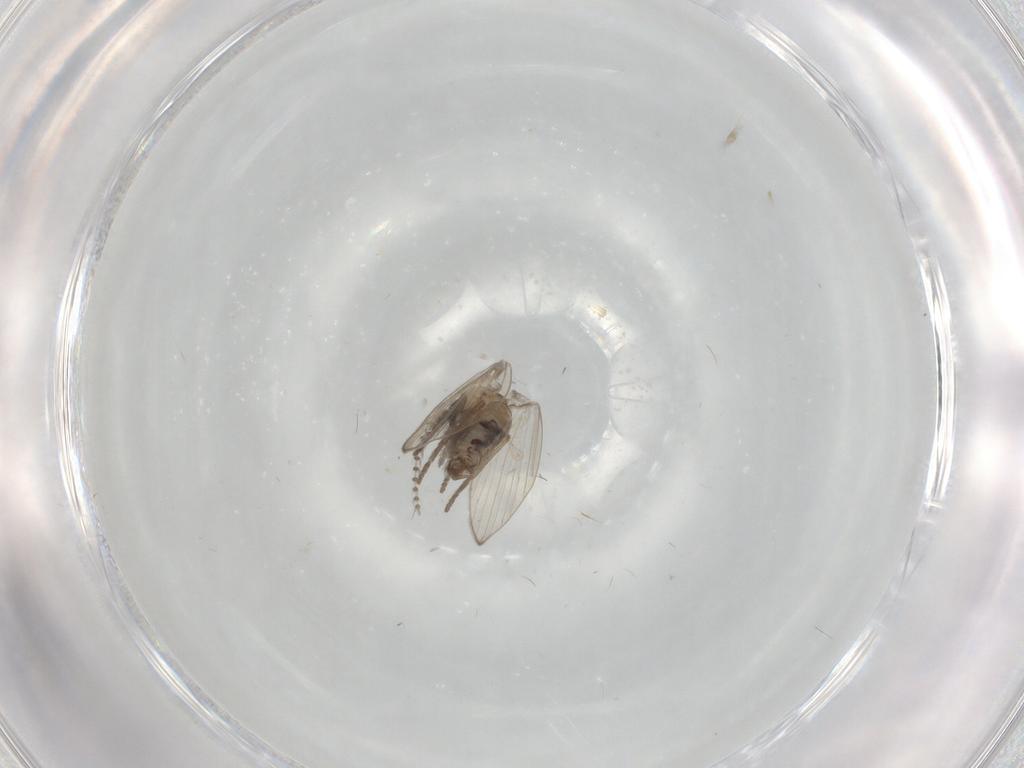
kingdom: Animalia
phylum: Arthropoda
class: Insecta
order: Diptera
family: Psychodidae
